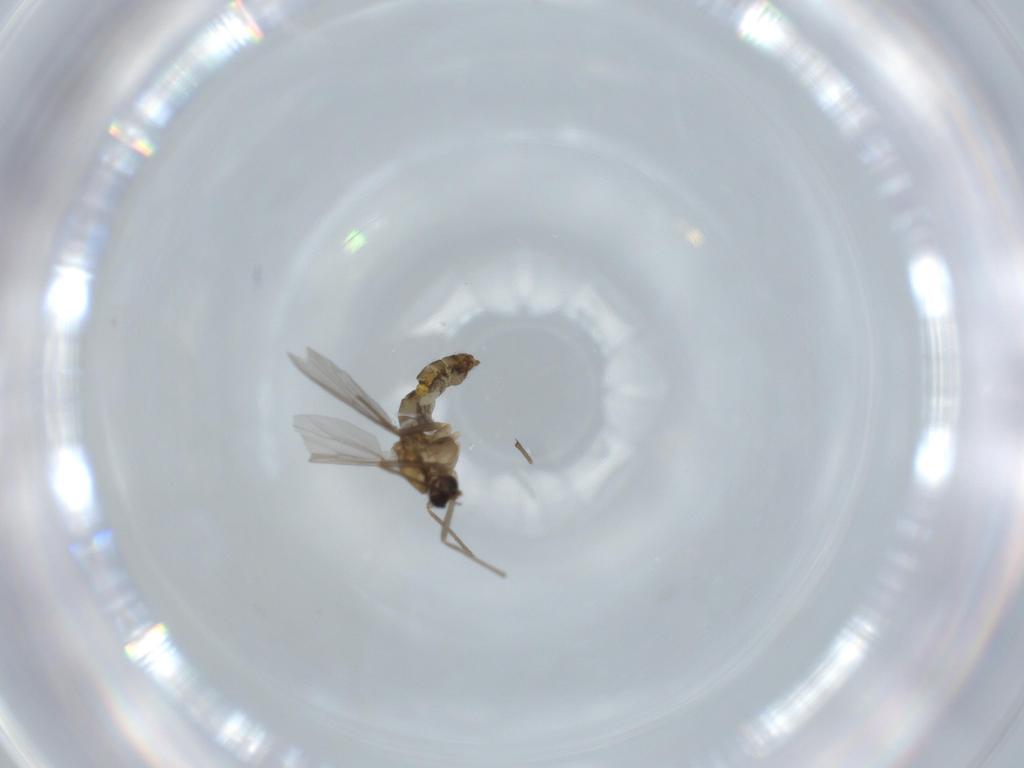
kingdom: Animalia
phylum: Arthropoda
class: Insecta
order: Diptera
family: Chironomidae
